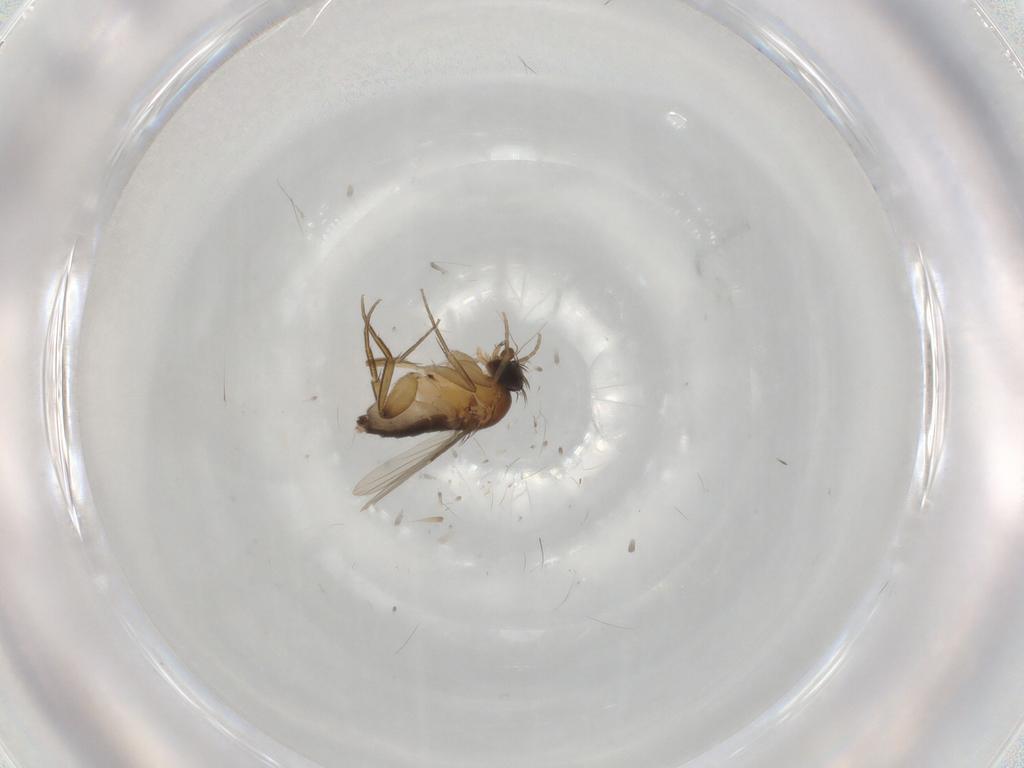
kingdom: Animalia
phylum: Arthropoda
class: Insecta
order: Diptera
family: Phoridae
